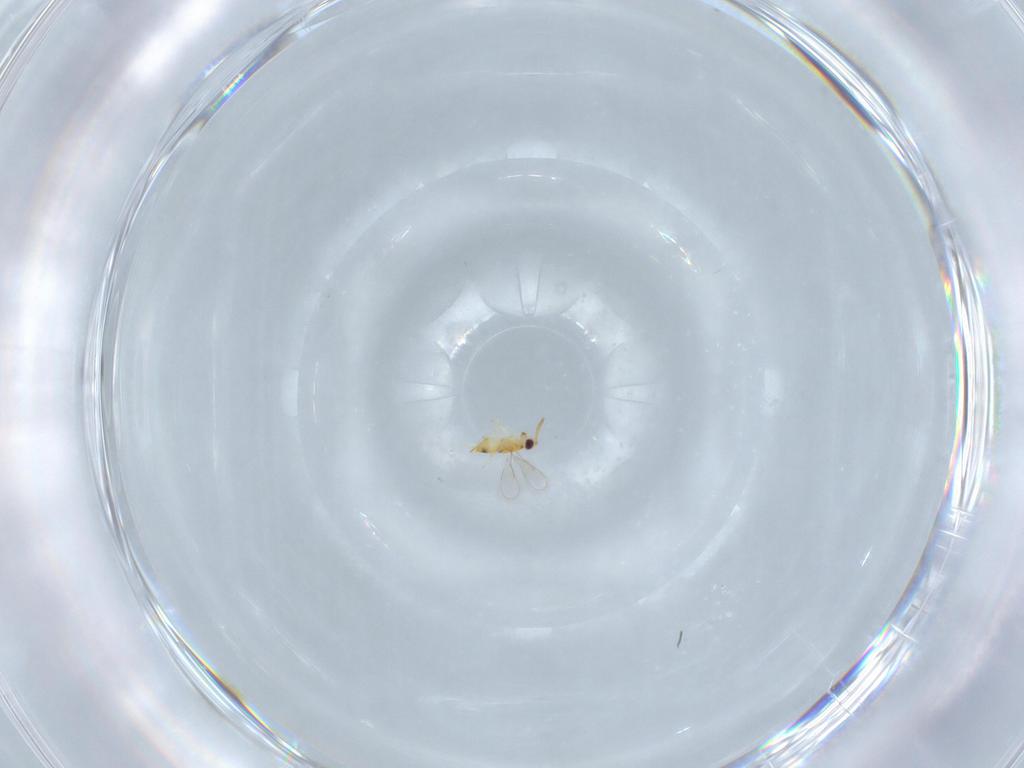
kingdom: Animalia
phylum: Arthropoda
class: Insecta
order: Hymenoptera
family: Aphelinidae
